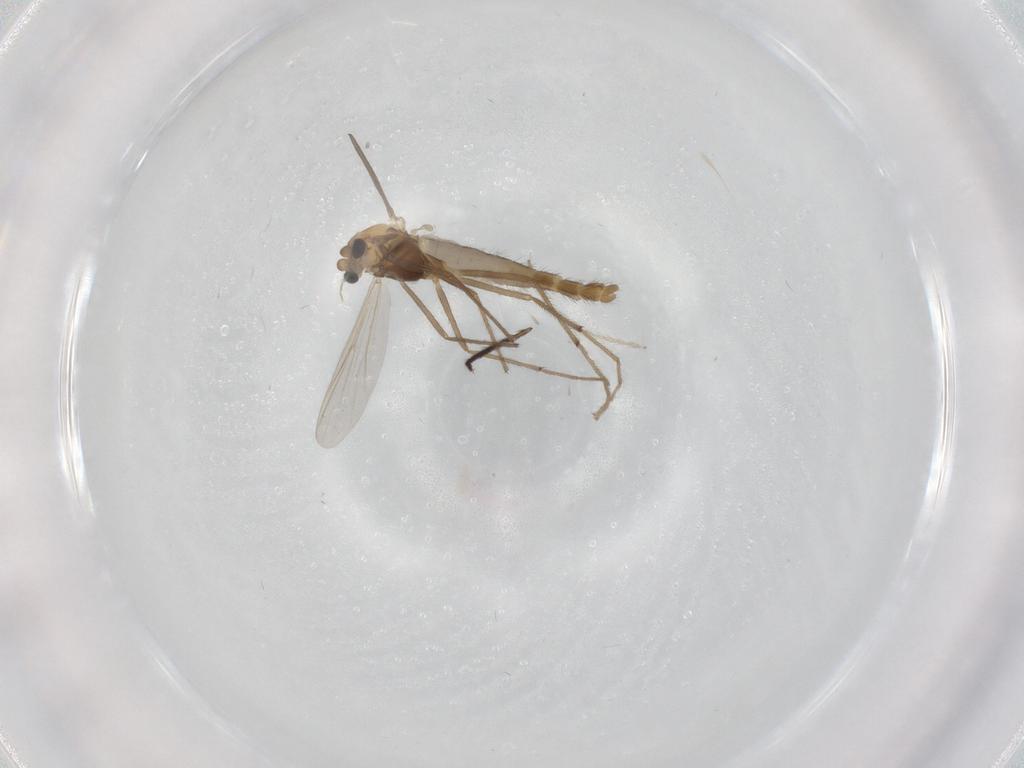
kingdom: Animalia
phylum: Arthropoda
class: Insecta
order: Diptera
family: Chironomidae
